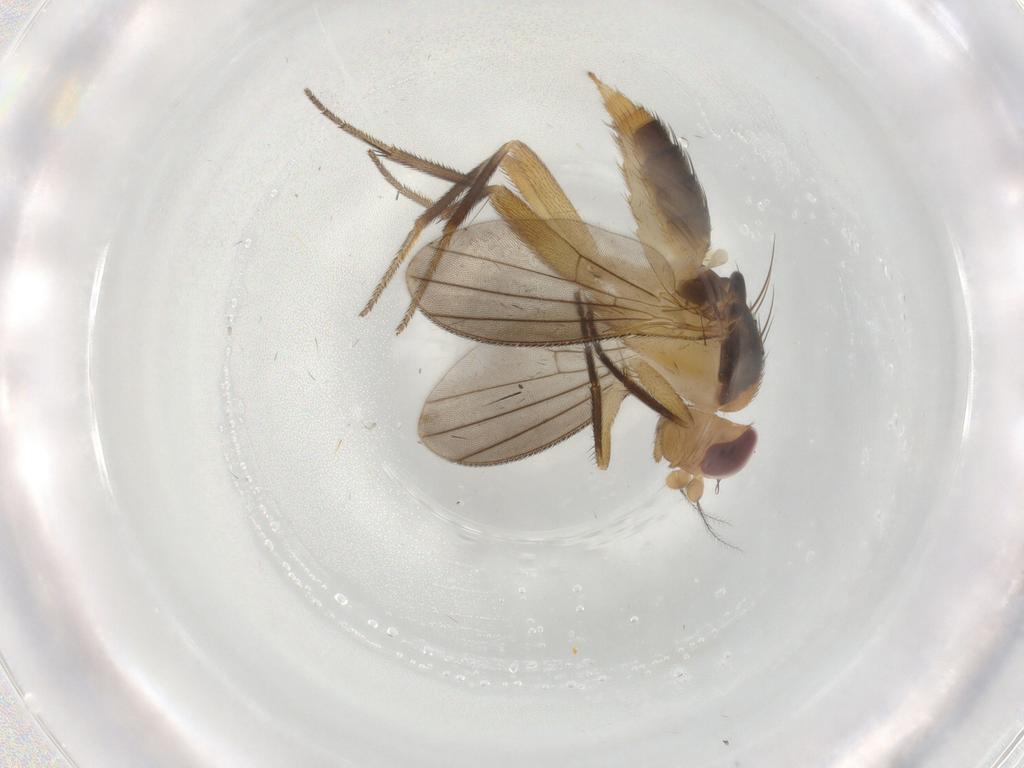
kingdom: Animalia
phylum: Arthropoda
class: Insecta
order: Diptera
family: Clusiidae
